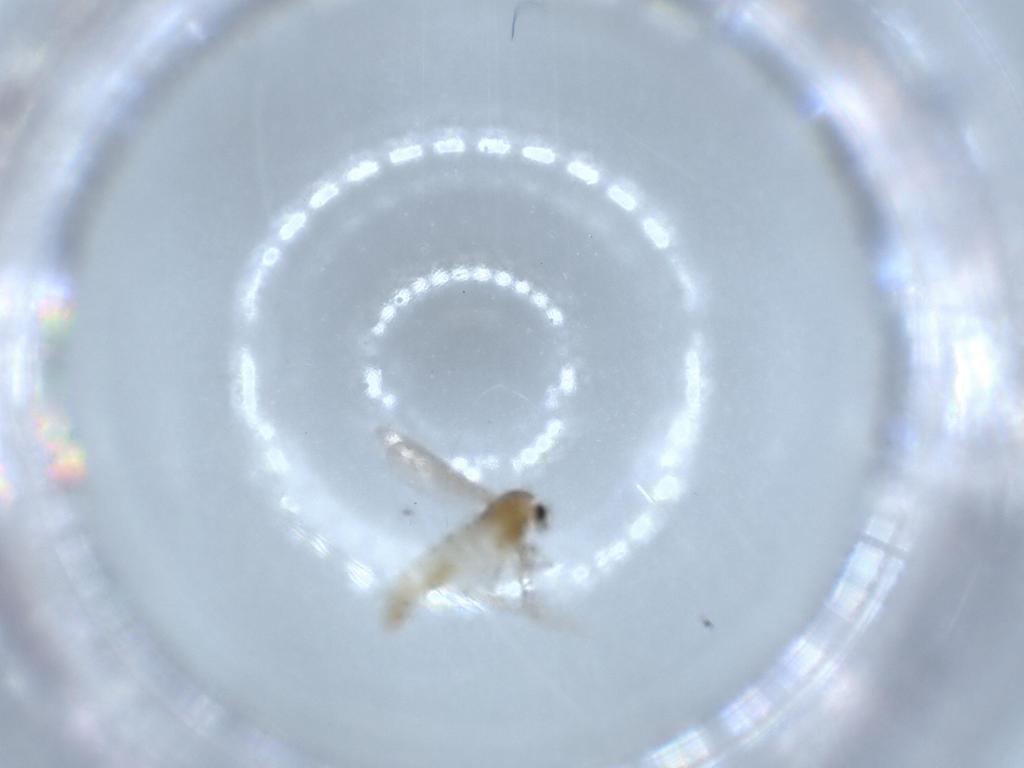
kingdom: Animalia
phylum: Arthropoda
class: Insecta
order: Diptera
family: Chironomidae
